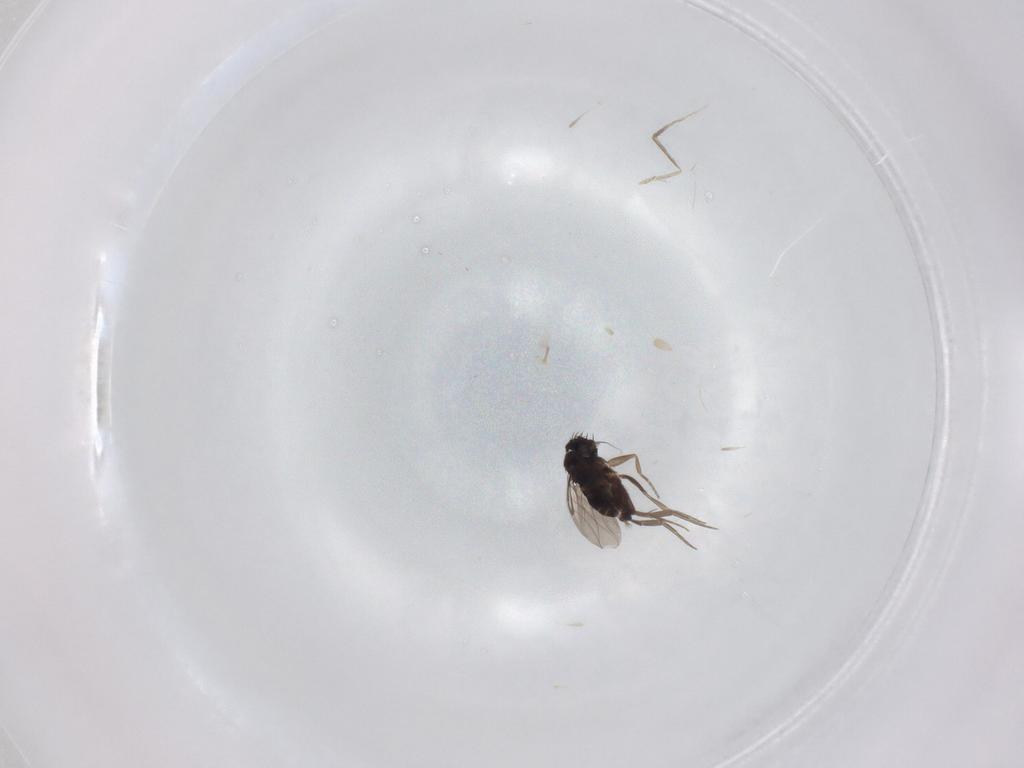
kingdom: Animalia
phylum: Arthropoda
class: Insecta
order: Diptera
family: Phoridae
